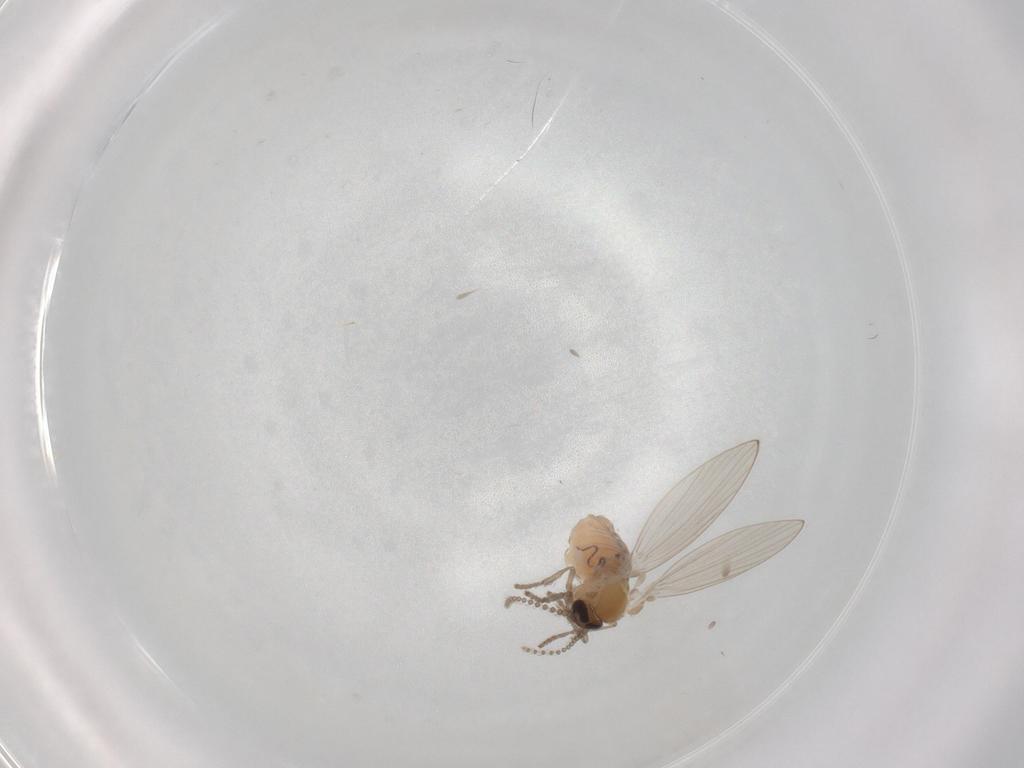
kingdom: Animalia
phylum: Arthropoda
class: Insecta
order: Diptera
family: Psychodidae
